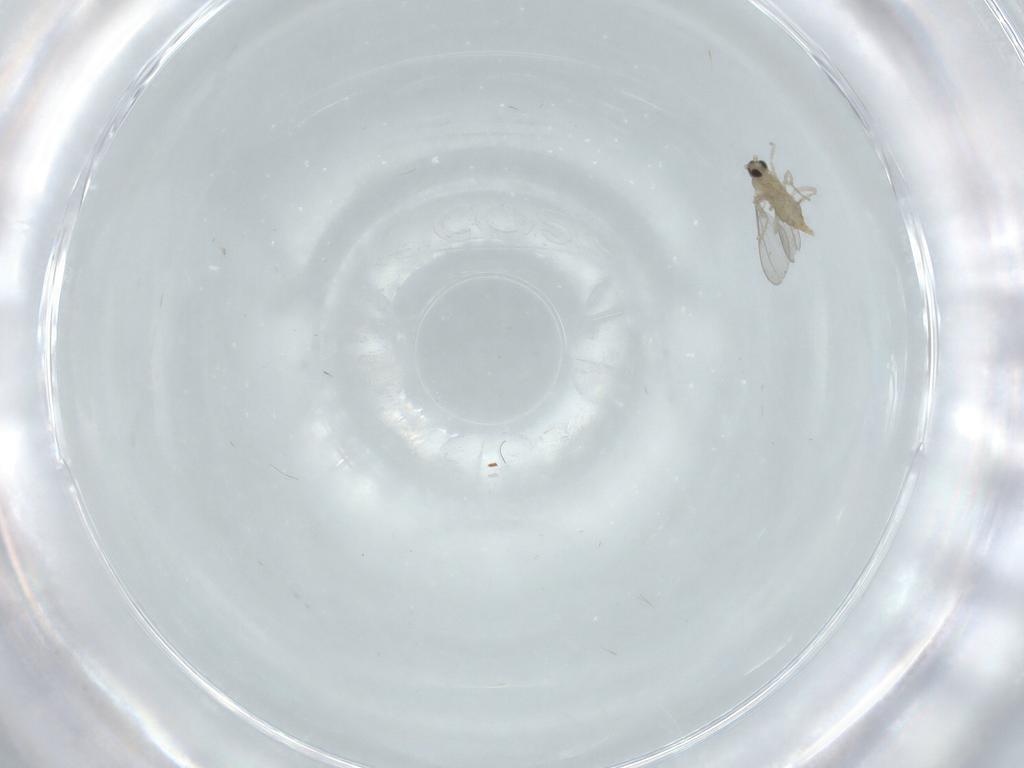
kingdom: Animalia
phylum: Arthropoda
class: Insecta
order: Diptera
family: Cecidomyiidae
